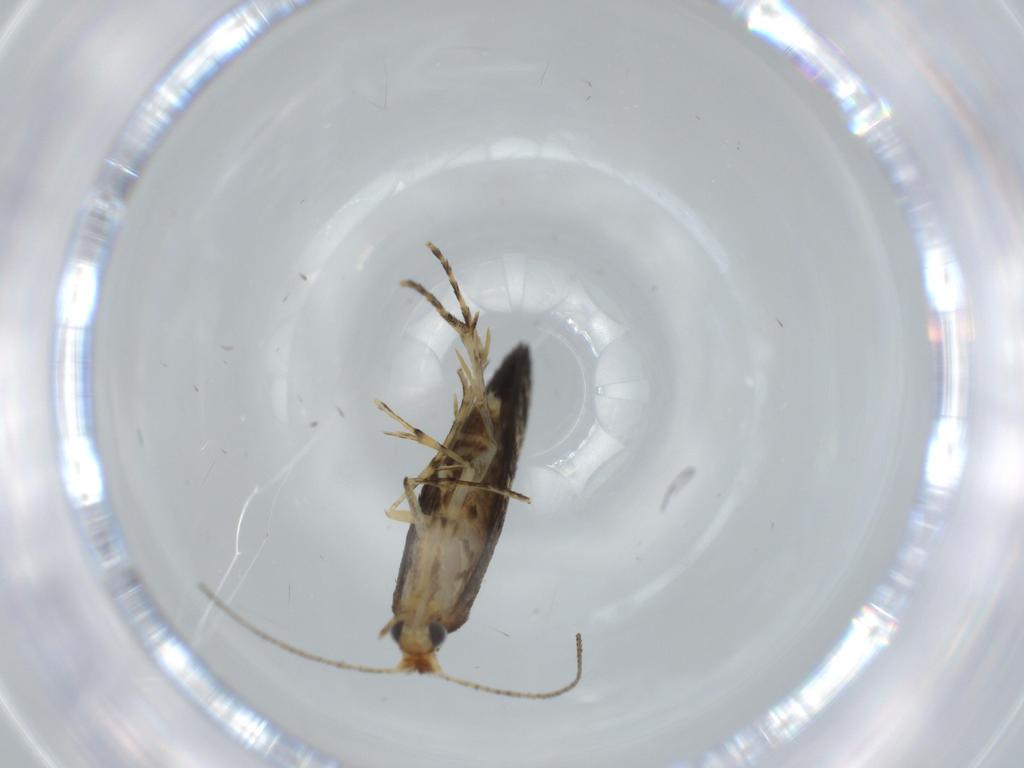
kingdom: Animalia
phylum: Arthropoda
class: Insecta
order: Lepidoptera
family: Argyresthiidae
